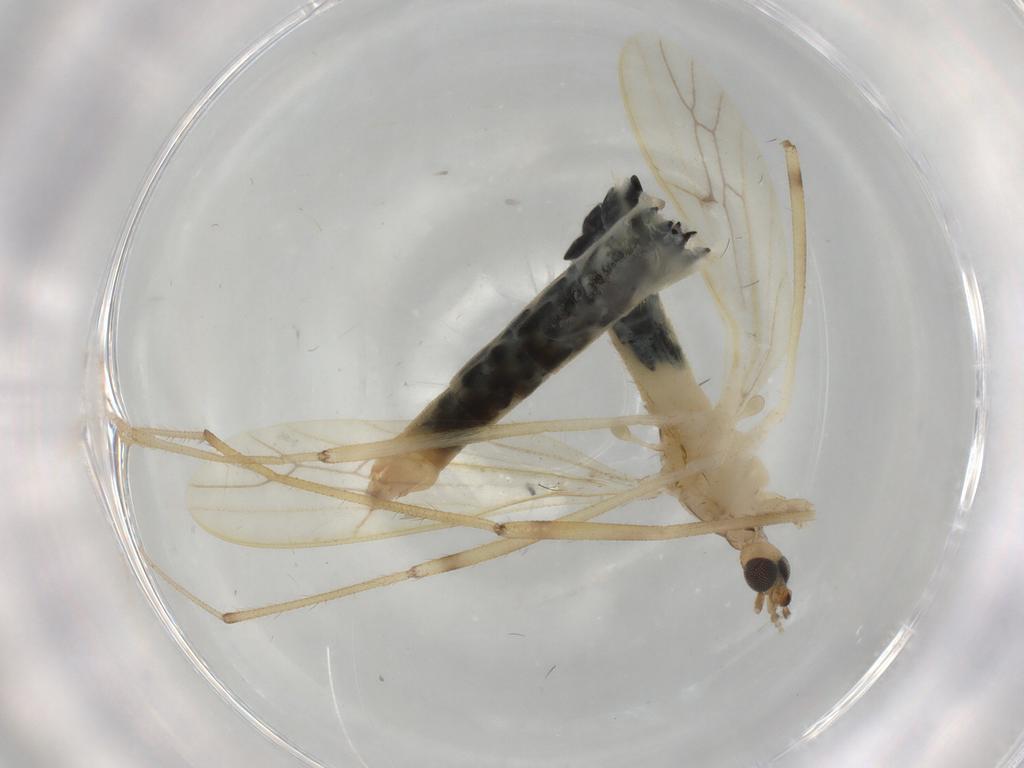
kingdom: Animalia
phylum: Arthropoda
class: Insecta
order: Diptera
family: Limoniidae
